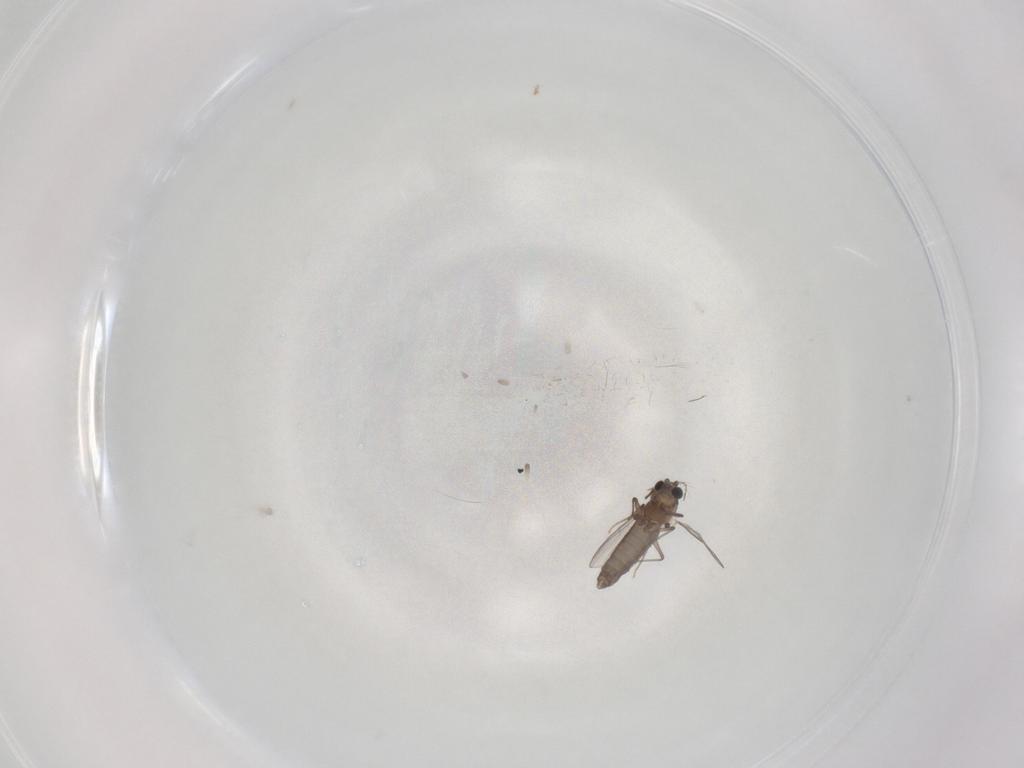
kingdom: Animalia
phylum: Arthropoda
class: Insecta
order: Diptera
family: Chironomidae
